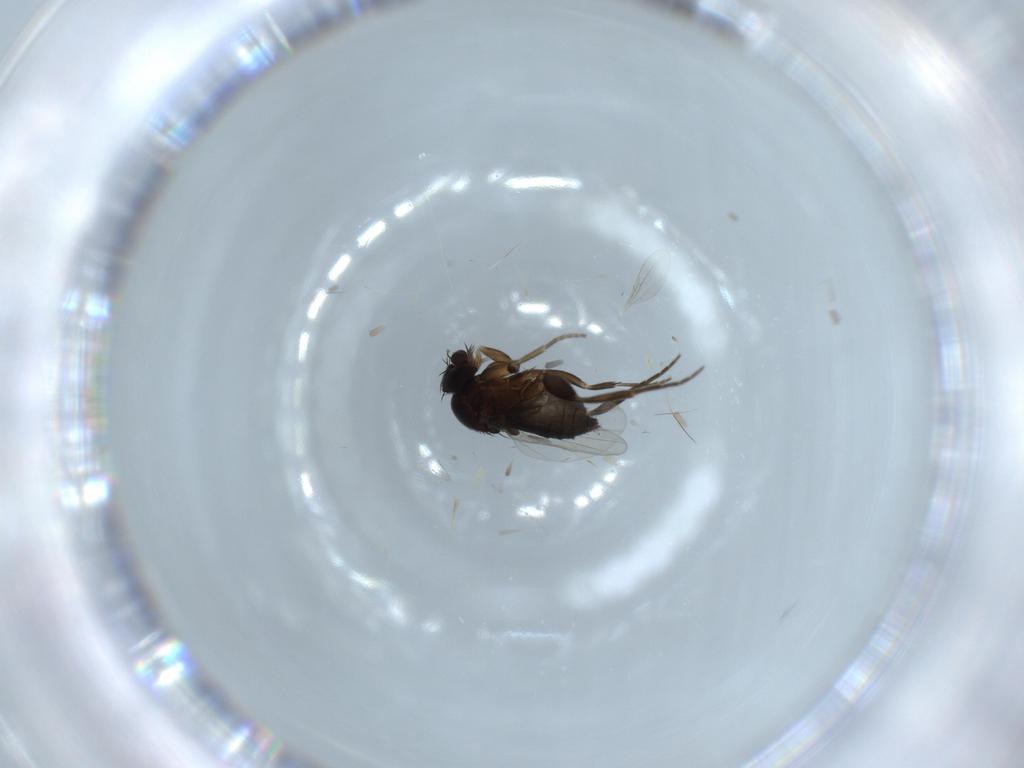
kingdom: Animalia
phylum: Arthropoda
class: Insecta
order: Diptera
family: Phoridae
